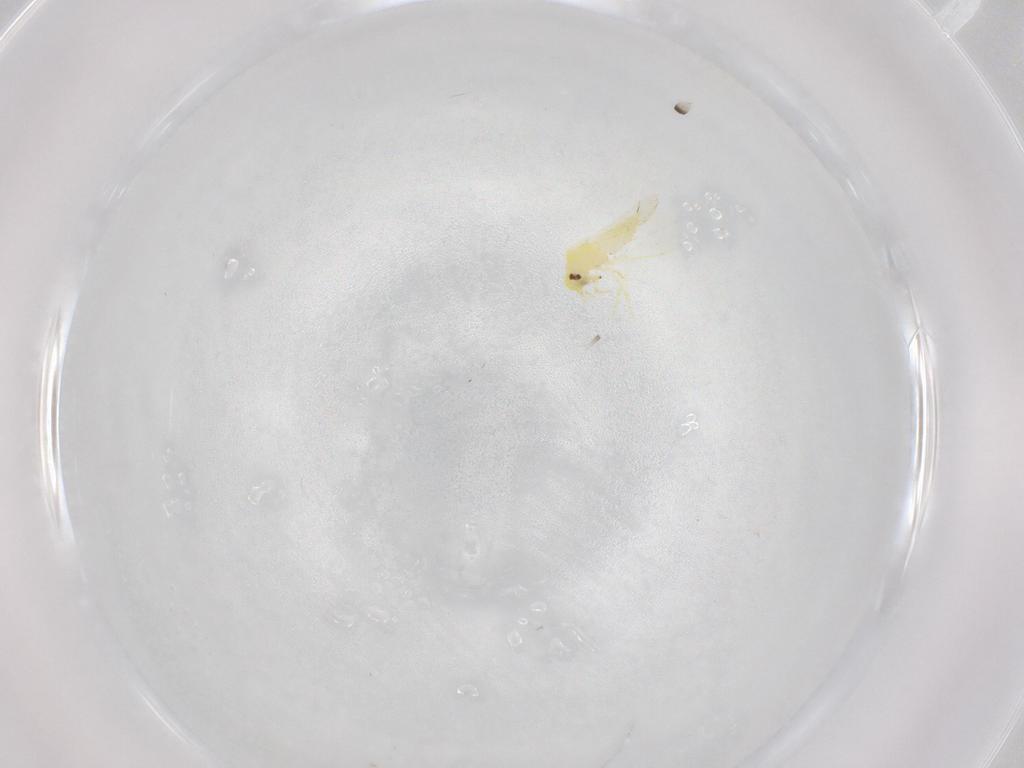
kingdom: Animalia
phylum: Arthropoda
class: Insecta
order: Hemiptera
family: Aleyrodidae
